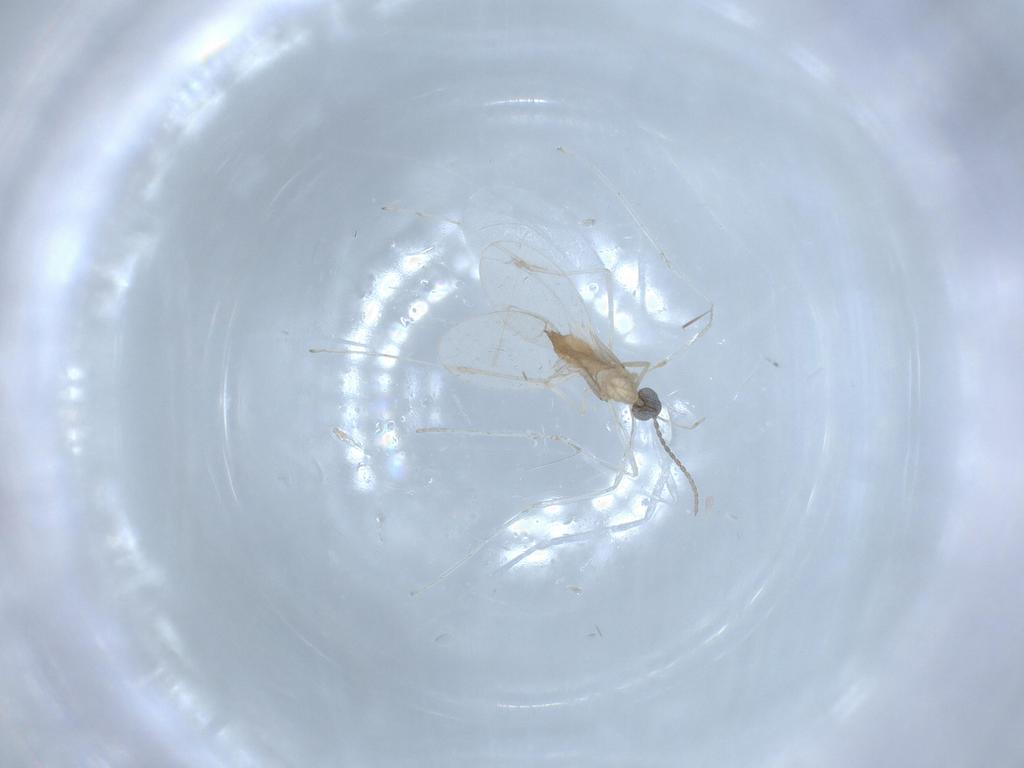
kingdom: Animalia
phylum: Arthropoda
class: Insecta
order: Diptera
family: Cecidomyiidae
